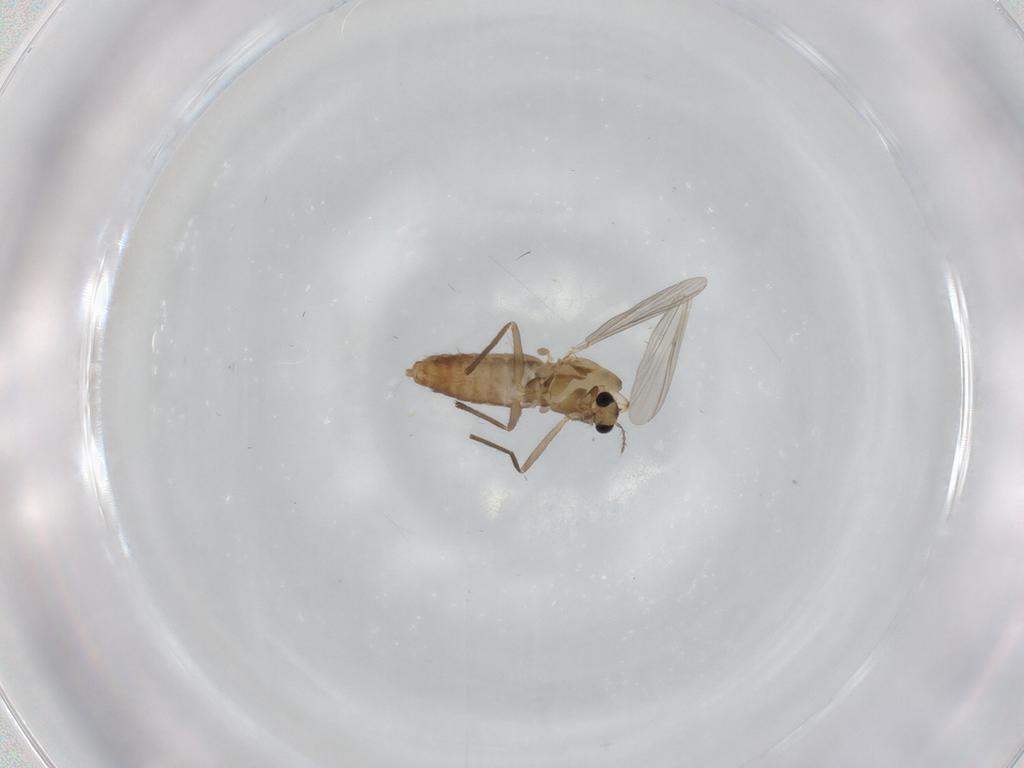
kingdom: Animalia
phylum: Arthropoda
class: Insecta
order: Diptera
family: Chironomidae
